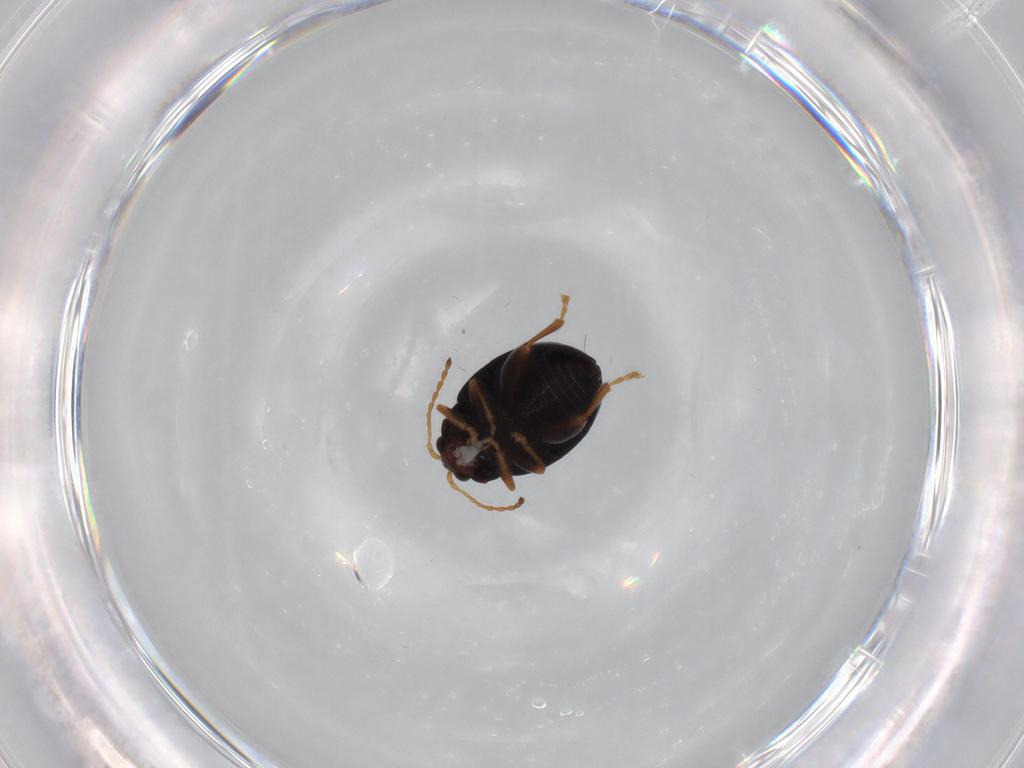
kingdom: Animalia
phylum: Arthropoda
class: Insecta
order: Coleoptera
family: Chrysomelidae
